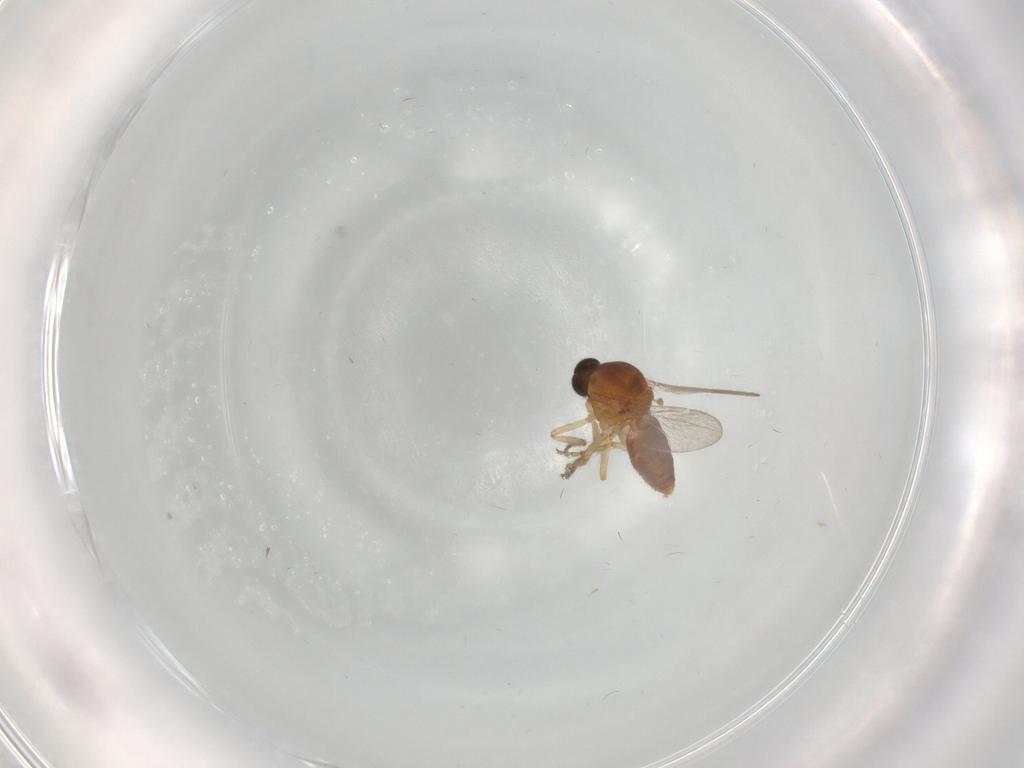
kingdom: Animalia
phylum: Arthropoda
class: Insecta
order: Diptera
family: Ceratopogonidae
